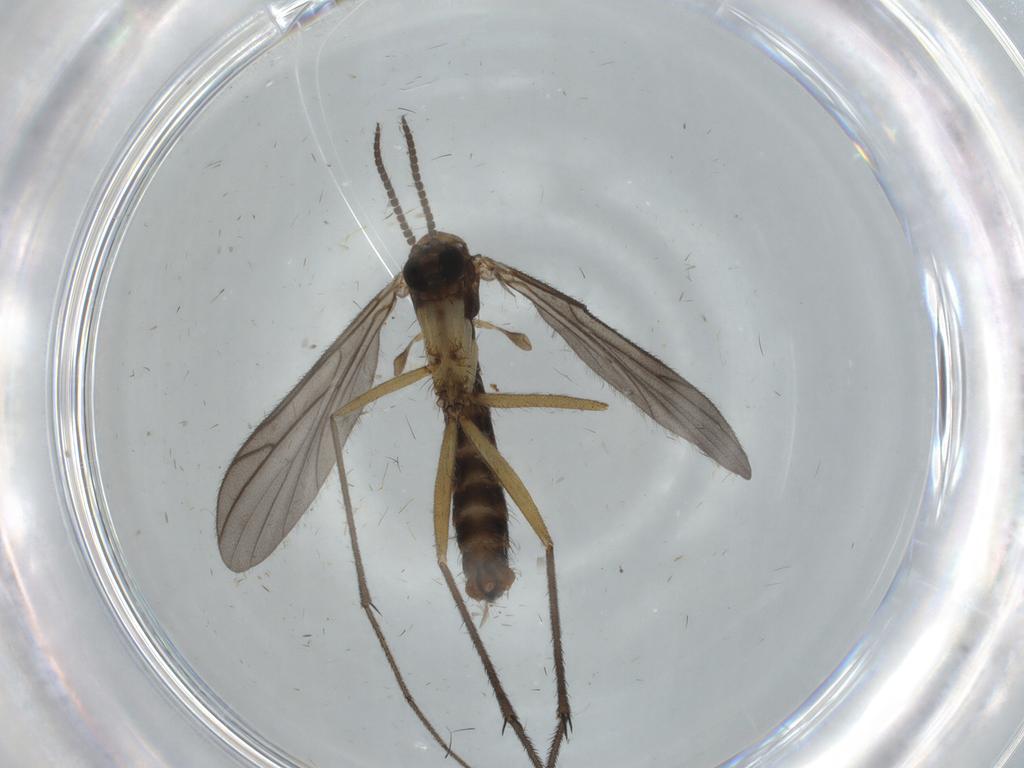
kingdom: Animalia
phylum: Arthropoda
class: Insecta
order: Diptera
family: Ditomyiidae
